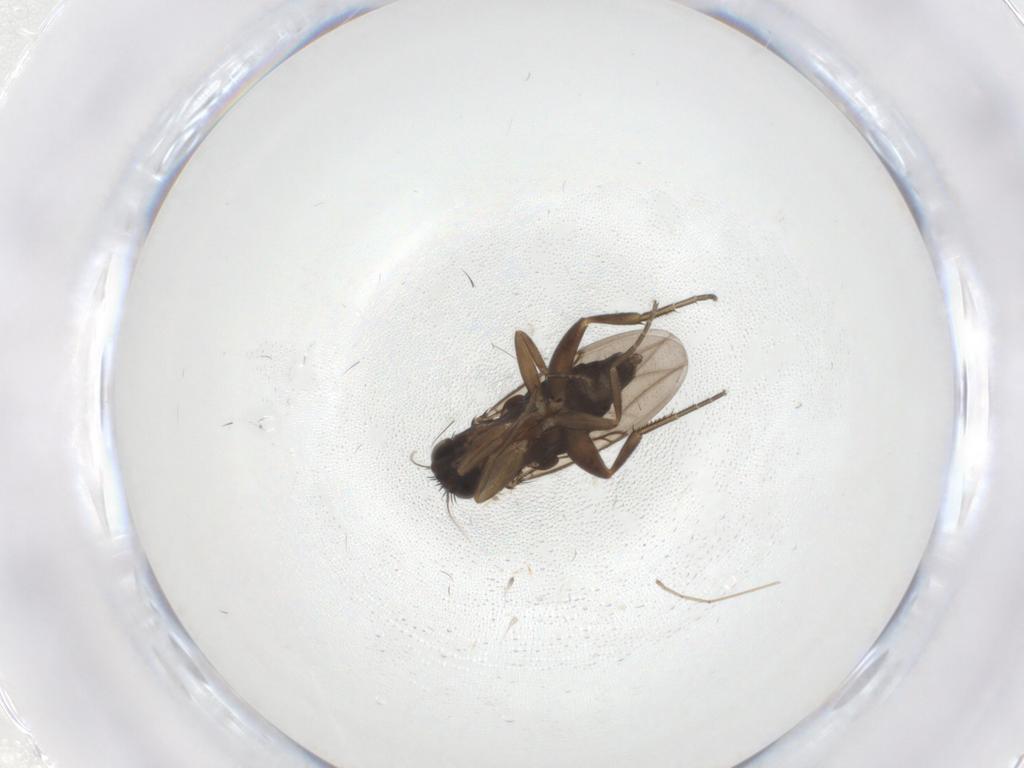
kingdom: Animalia
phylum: Arthropoda
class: Insecta
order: Diptera
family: Phoridae
